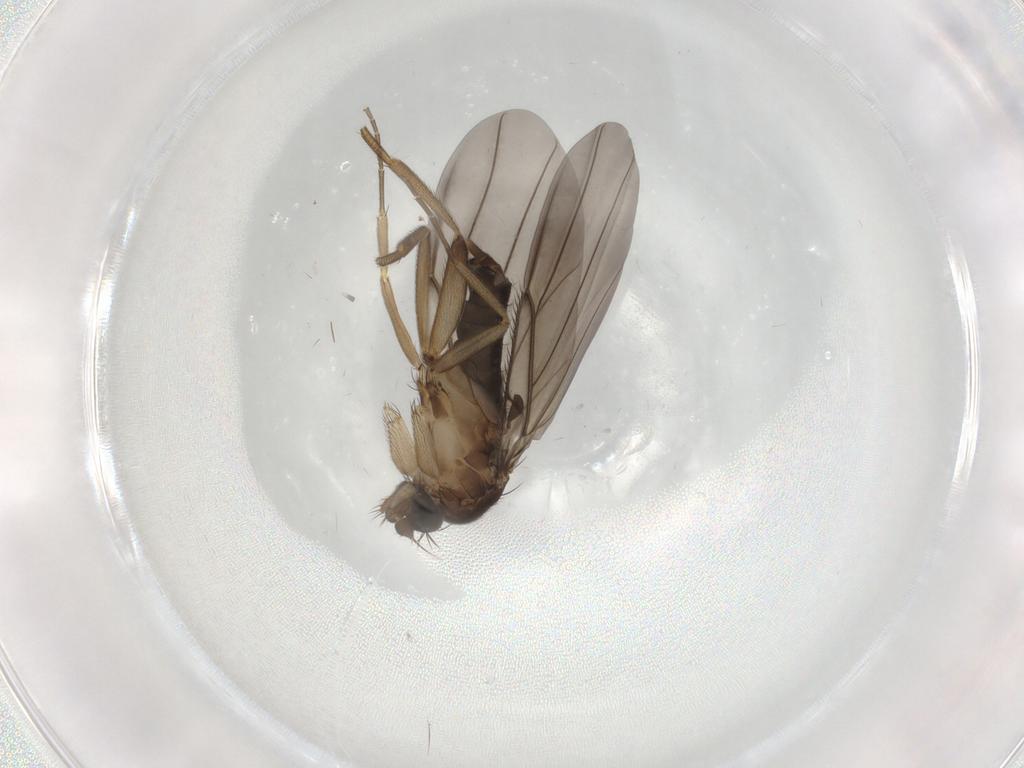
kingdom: Animalia
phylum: Arthropoda
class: Insecta
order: Diptera
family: Phoridae
